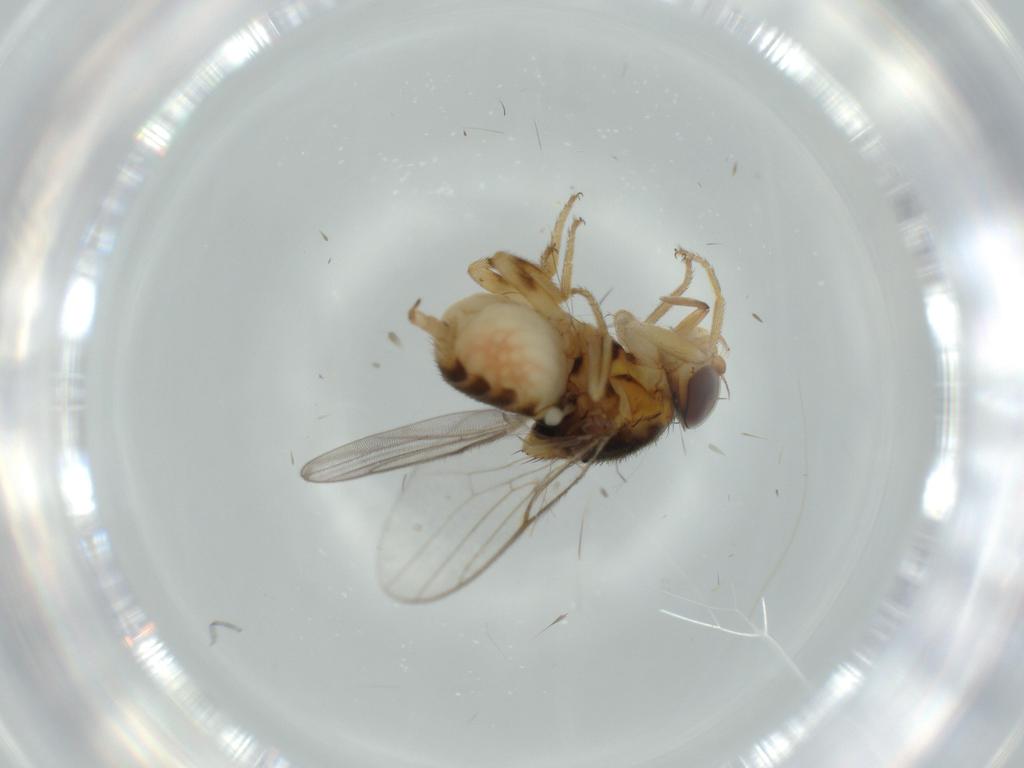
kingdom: Animalia
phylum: Arthropoda
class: Insecta
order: Diptera
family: Chloropidae
